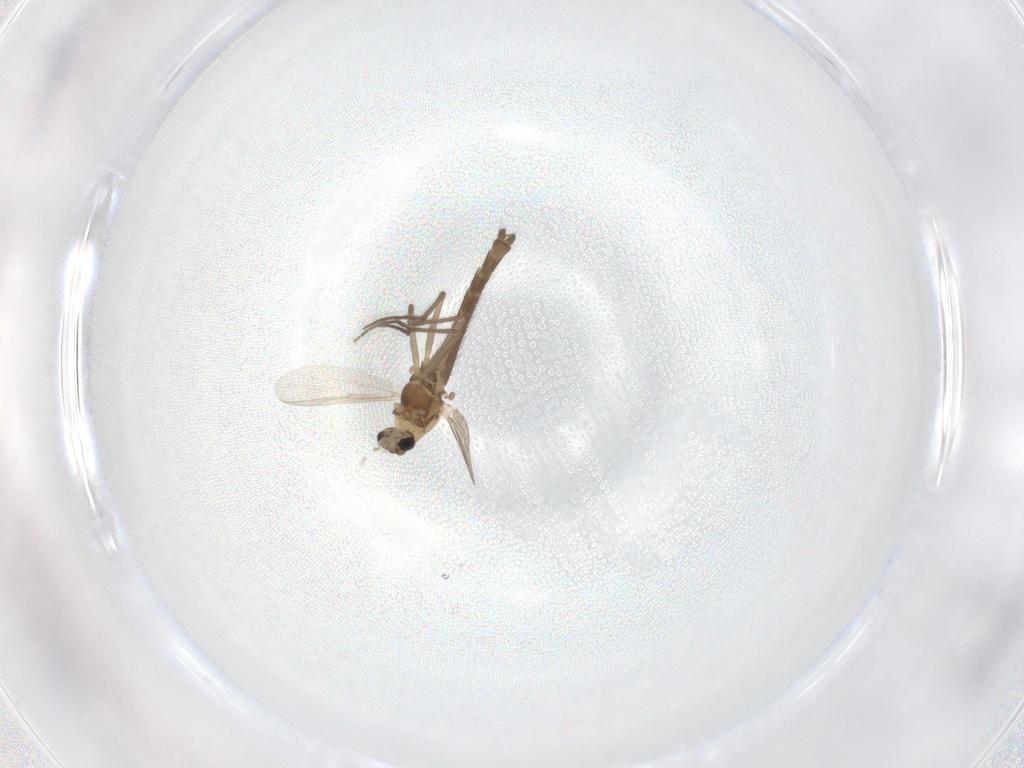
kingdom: Animalia
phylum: Arthropoda
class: Insecta
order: Diptera
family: Chironomidae
